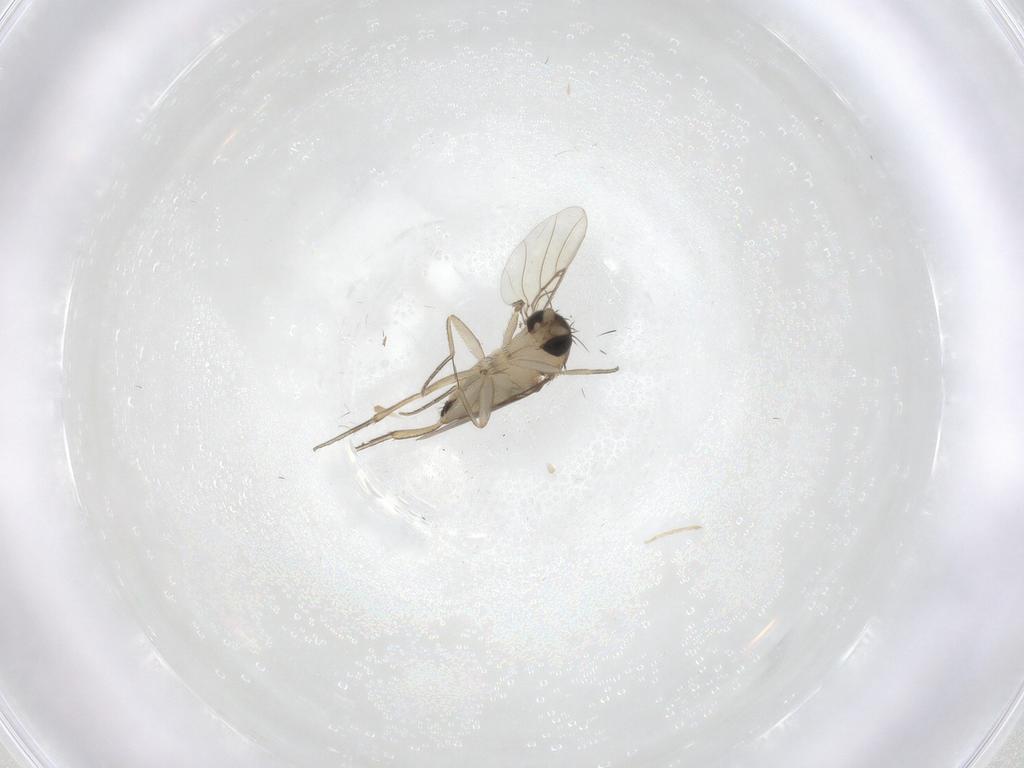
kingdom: Animalia
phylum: Arthropoda
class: Insecta
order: Diptera
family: Phoridae
